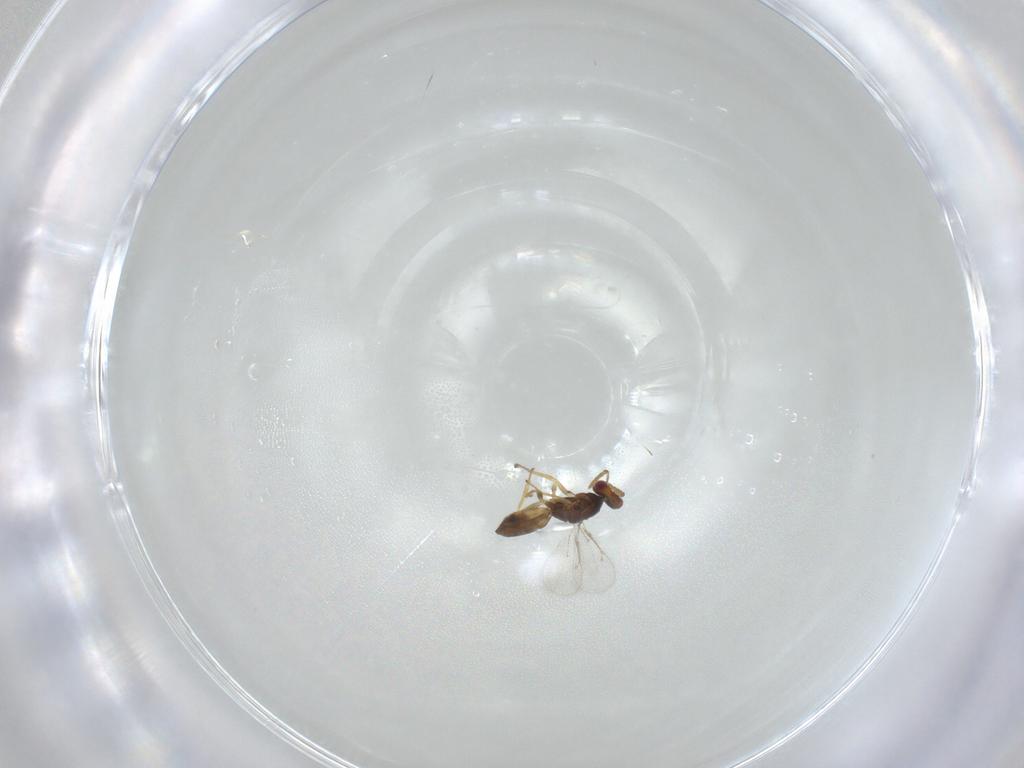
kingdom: Animalia
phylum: Arthropoda
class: Insecta
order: Hymenoptera
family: Eulophidae
